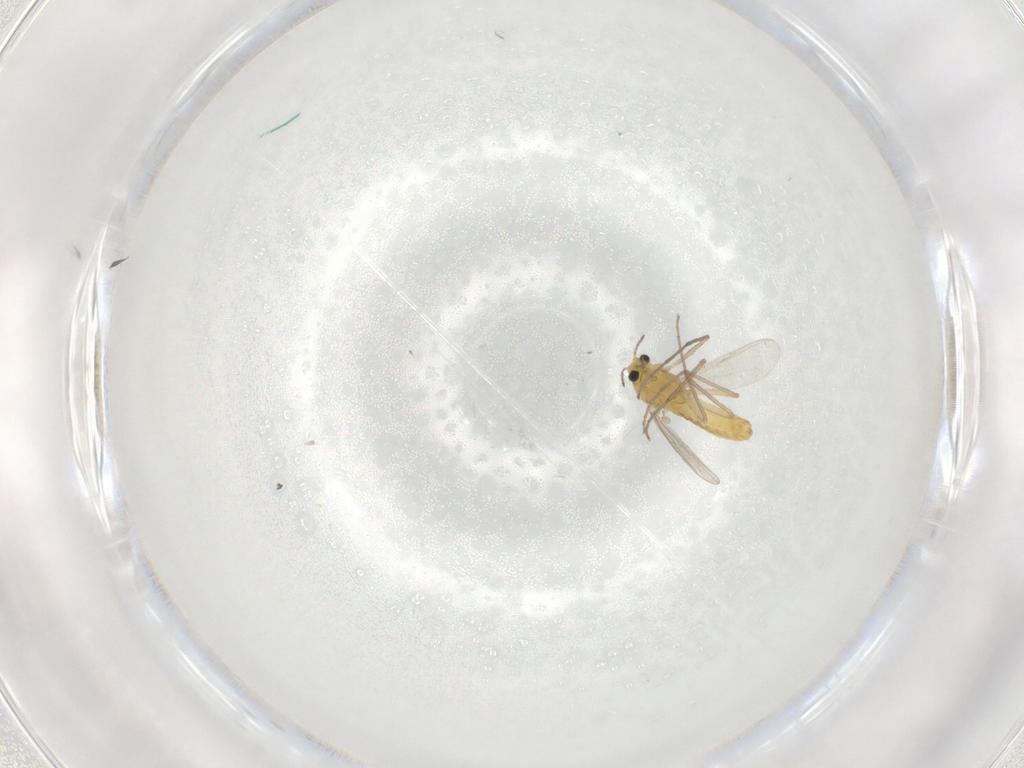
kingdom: Animalia
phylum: Arthropoda
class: Insecta
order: Diptera
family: Chironomidae
